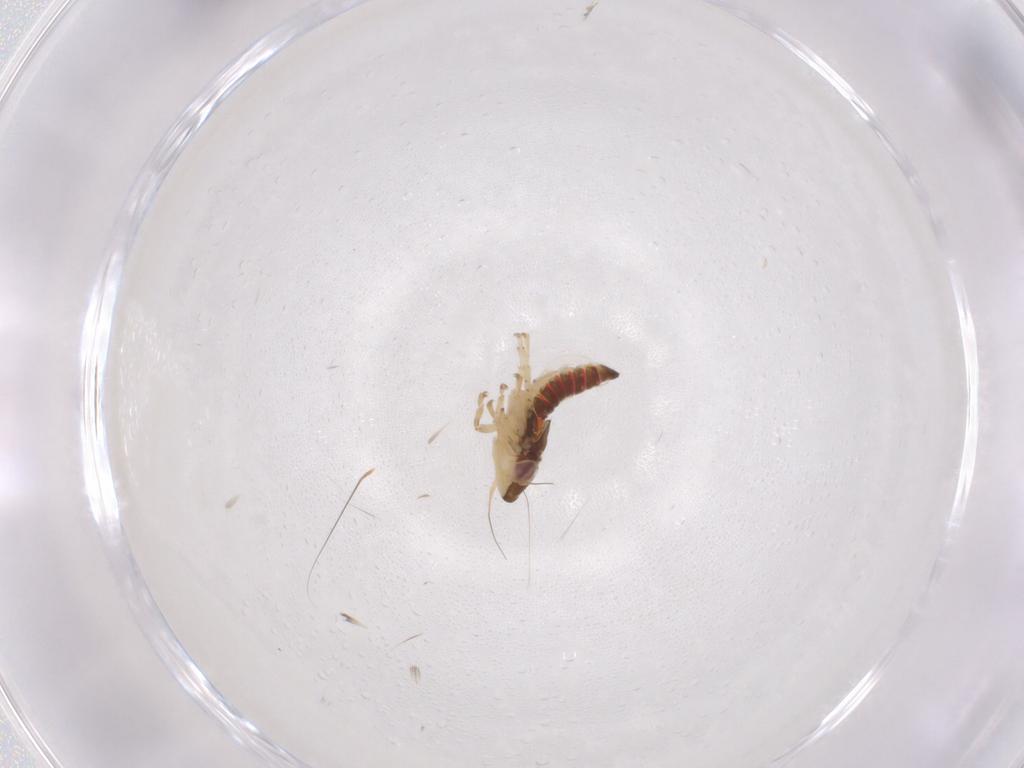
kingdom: Animalia
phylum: Arthropoda
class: Insecta
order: Hemiptera
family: Cicadellidae
